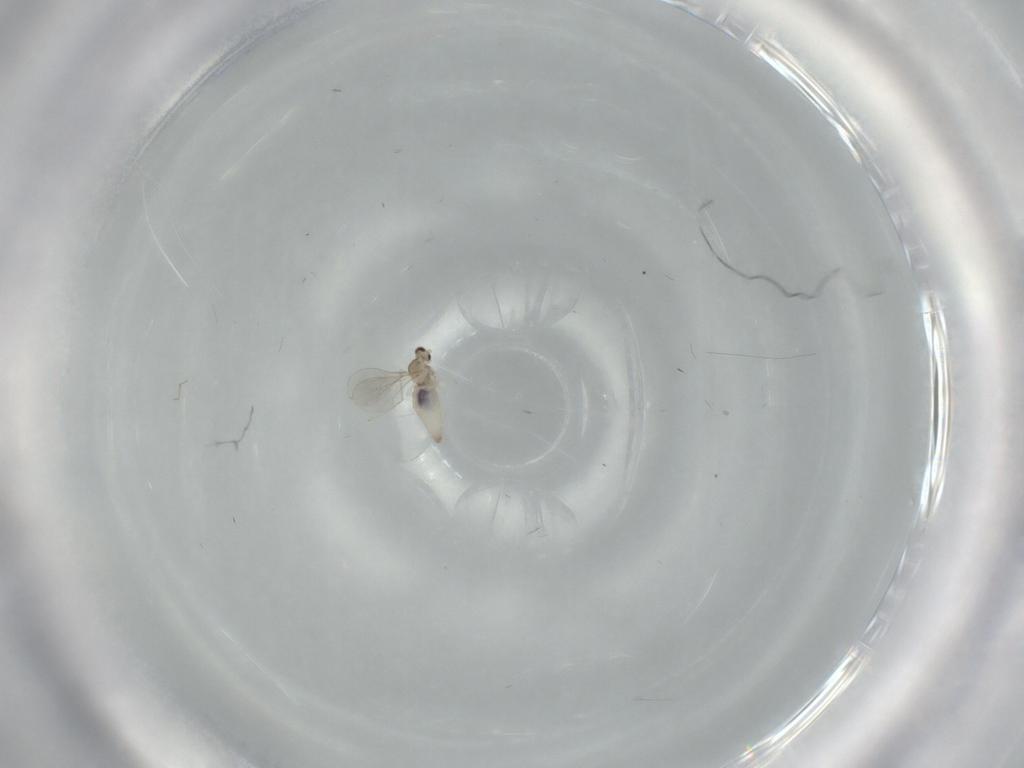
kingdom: Animalia
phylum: Arthropoda
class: Insecta
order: Diptera
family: Cecidomyiidae
